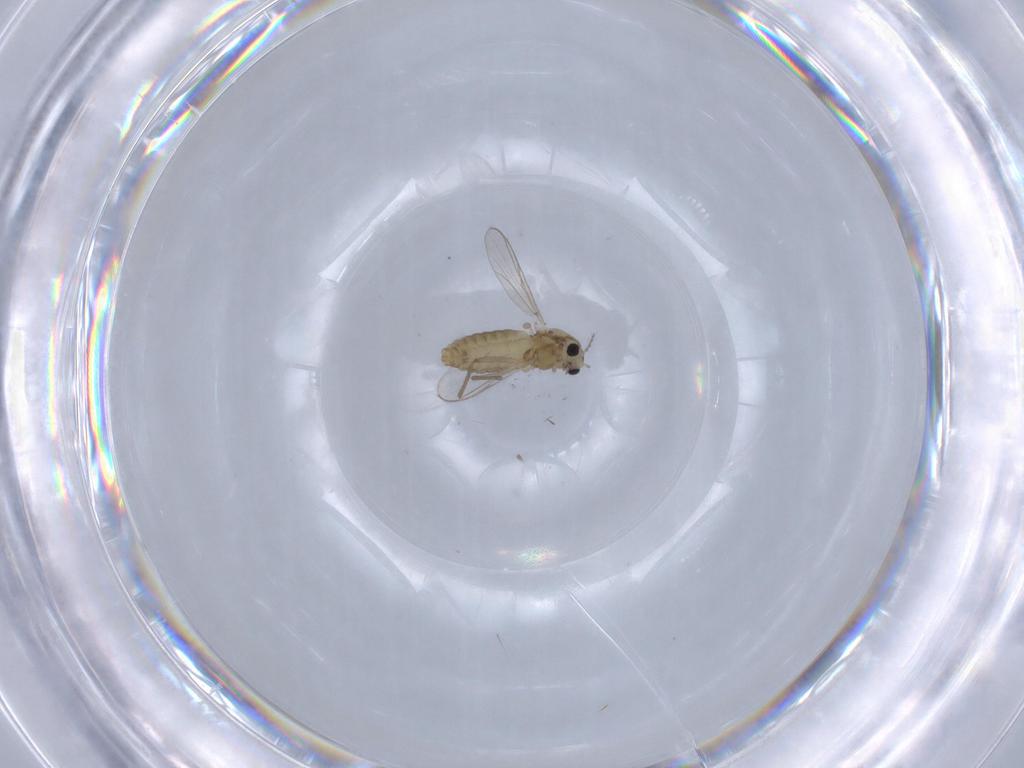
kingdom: Animalia
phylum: Arthropoda
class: Insecta
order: Diptera
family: Chironomidae
